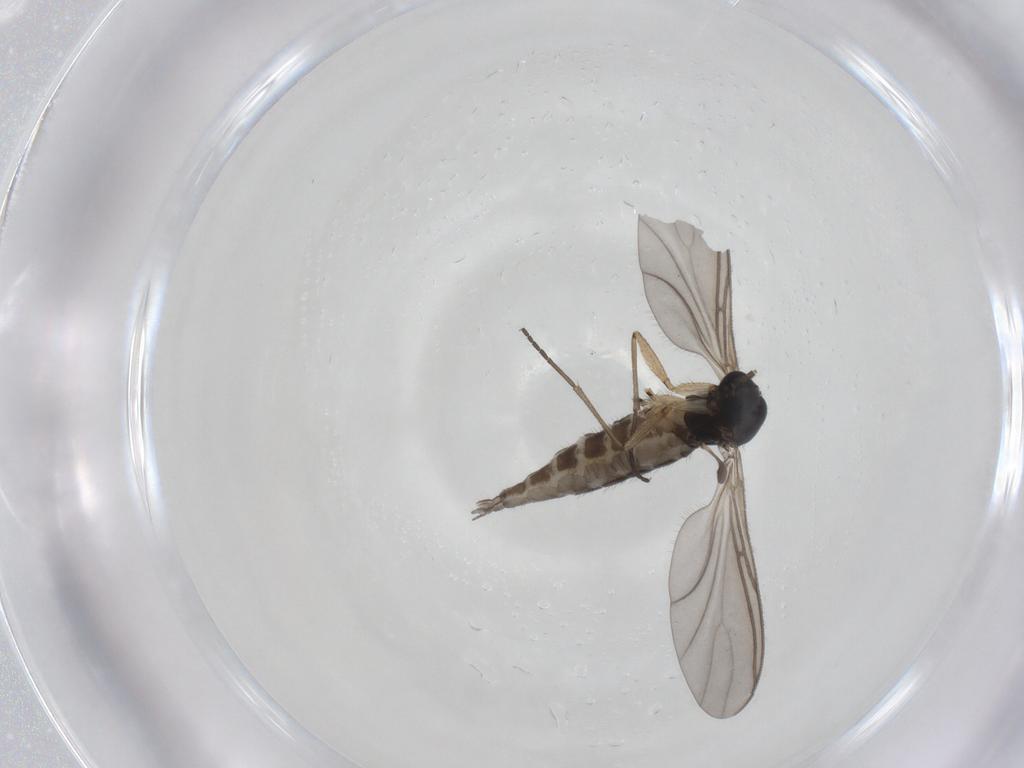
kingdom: Animalia
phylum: Arthropoda
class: Insecta
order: Diptera
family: Sciaridae
